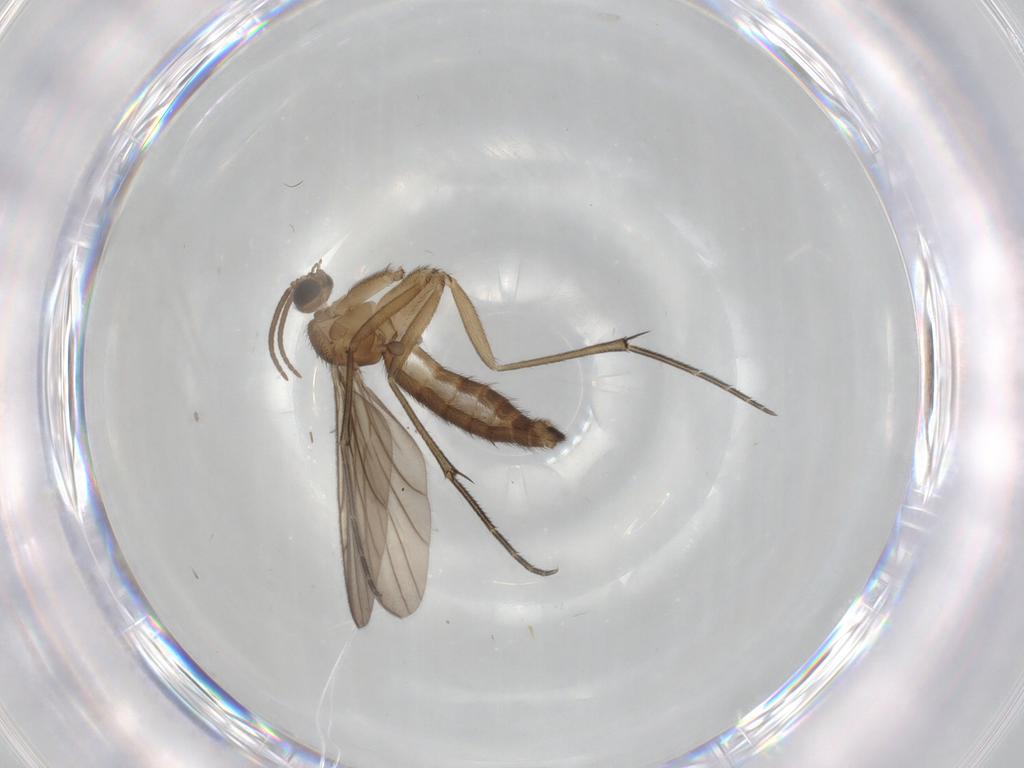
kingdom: Animalia
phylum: Arthropoda
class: Insecta
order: Diptera
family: Keroplatidae
